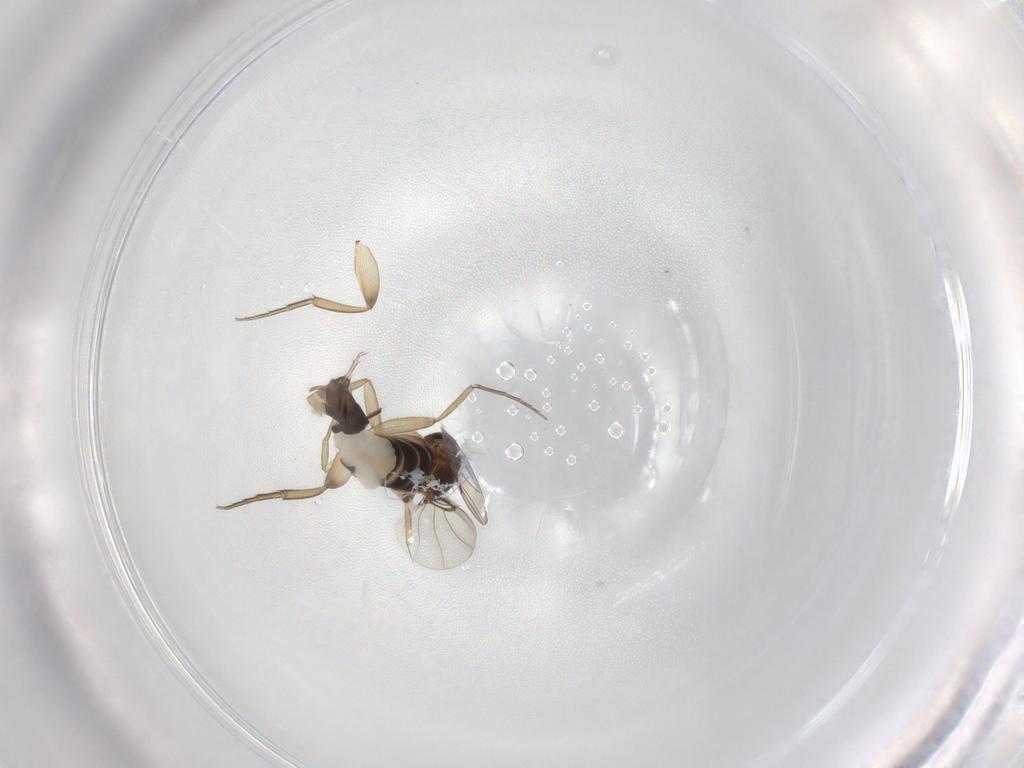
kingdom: Animalia
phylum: Arthropoda
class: Insecta
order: Diptera
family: Phoridae
